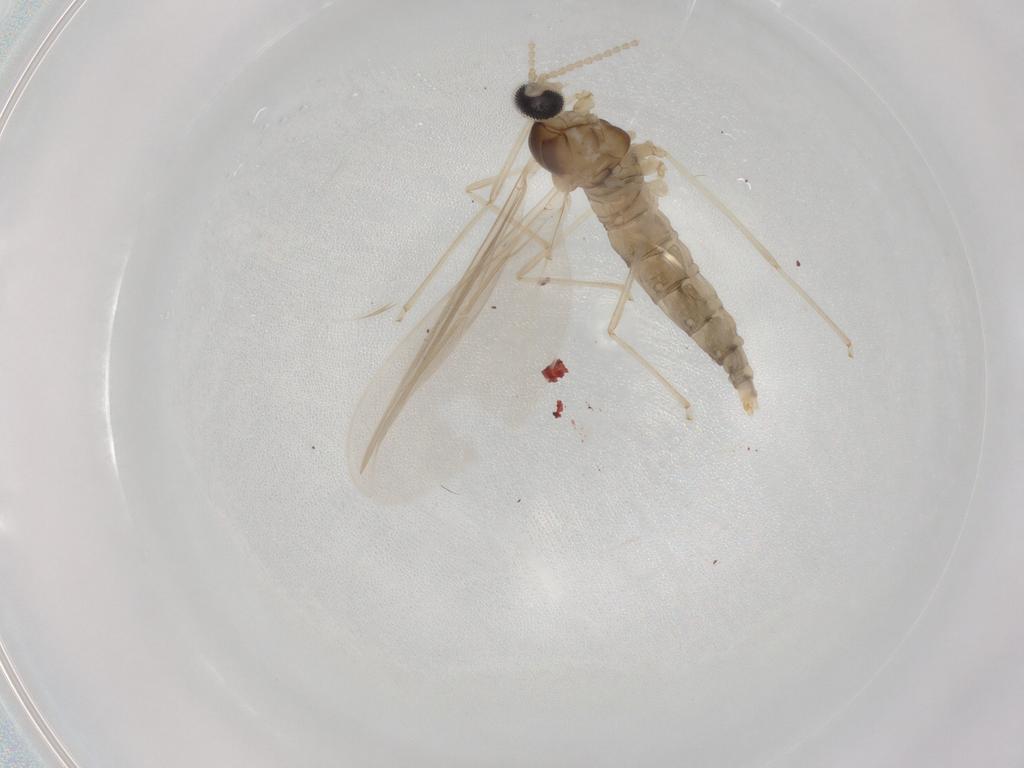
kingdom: Animalia
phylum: Arthropoda
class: Insecta
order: Diptera
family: Cecidomyiidae
